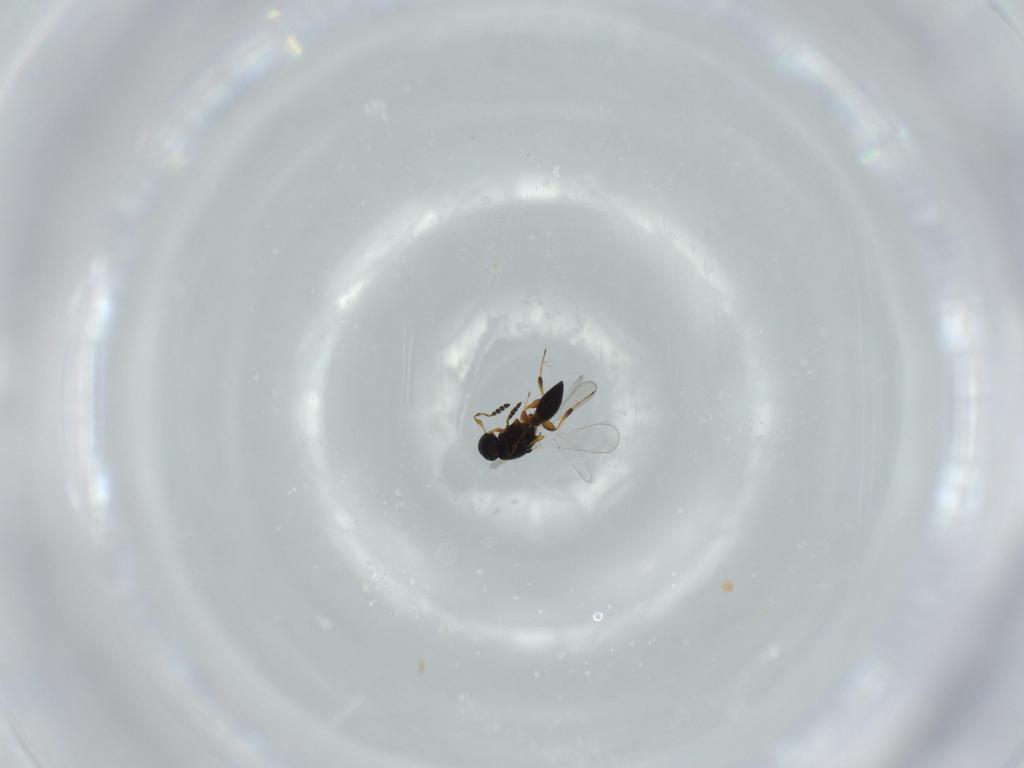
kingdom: Animalia
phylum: Arthropoda
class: Insecta
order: Hymenoptera
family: Platygastridae
